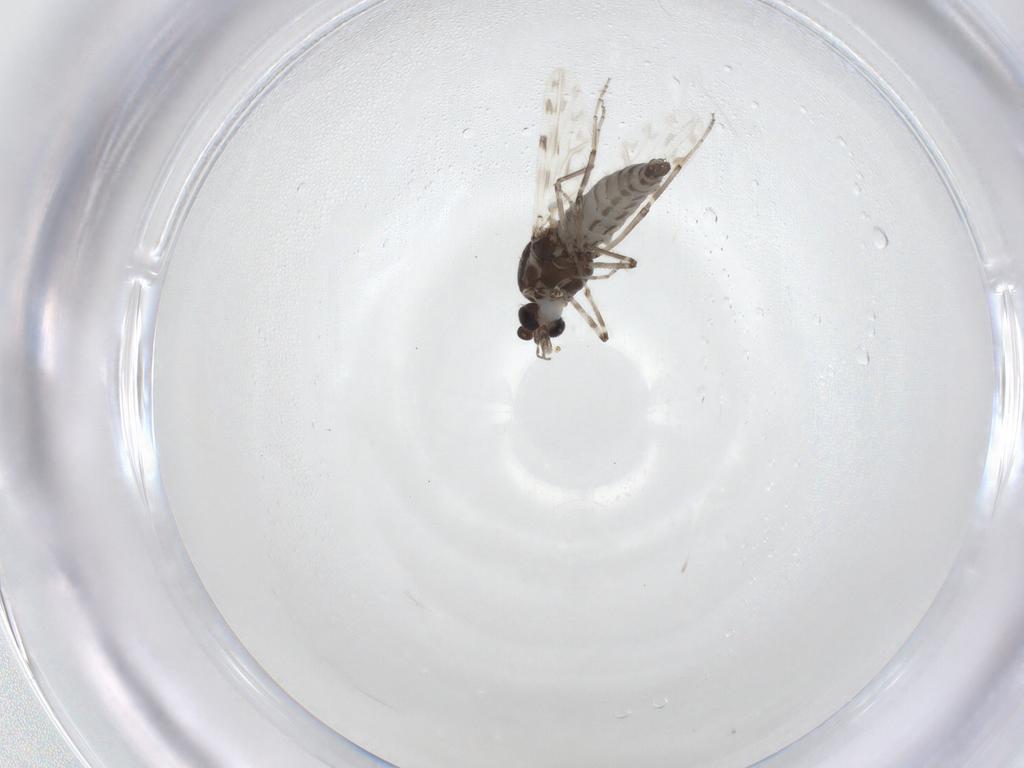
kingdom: Animalia
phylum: Arthropoda
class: Insecta
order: Diptera
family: Ceratopogonidae
